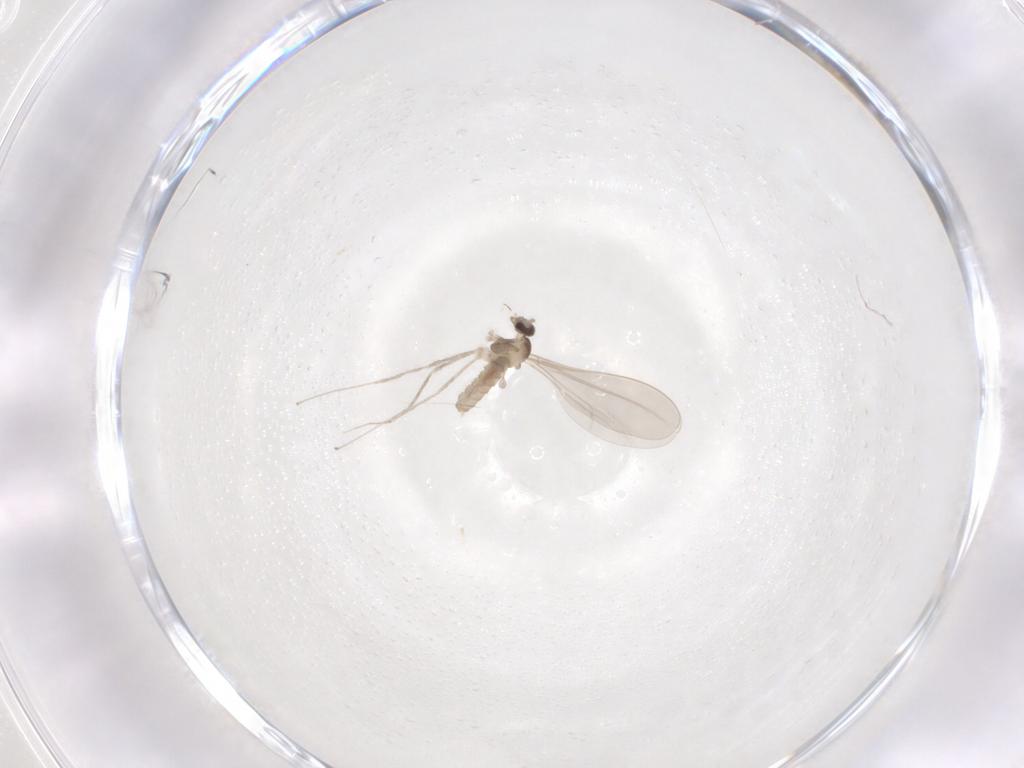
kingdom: Animalia
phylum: Arthropoda
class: Insecta
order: Diptera
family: Cecidomyiidae
